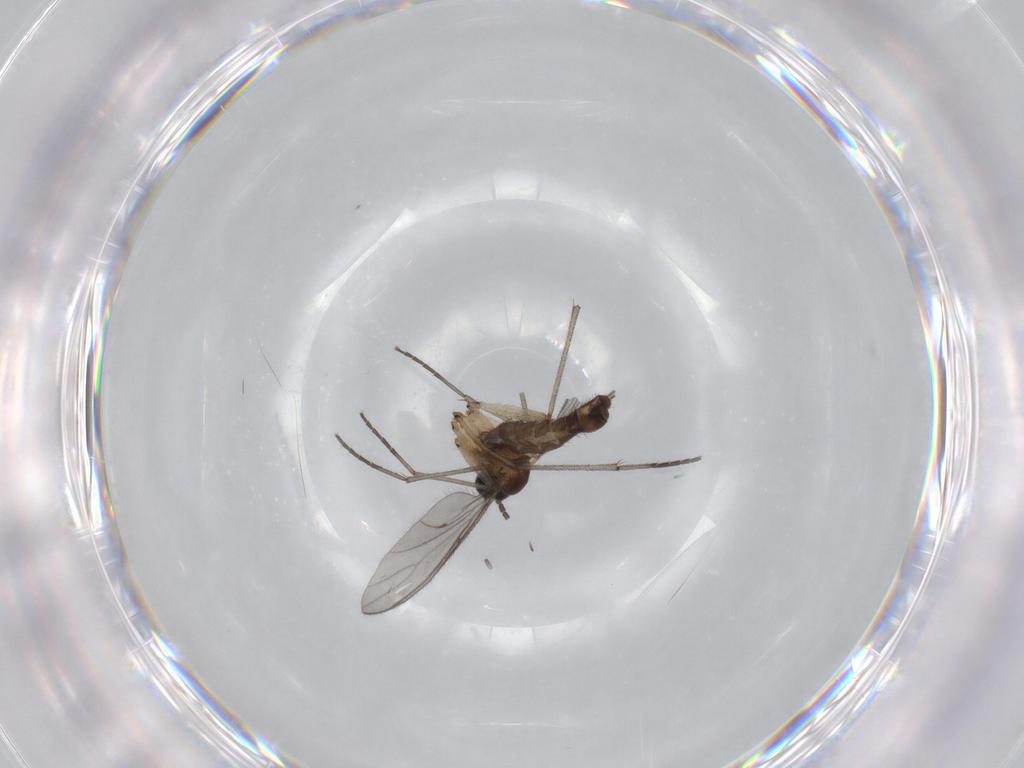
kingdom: Animalia
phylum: Arthropoda
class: Insecta
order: Diptera
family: Sciaridae
